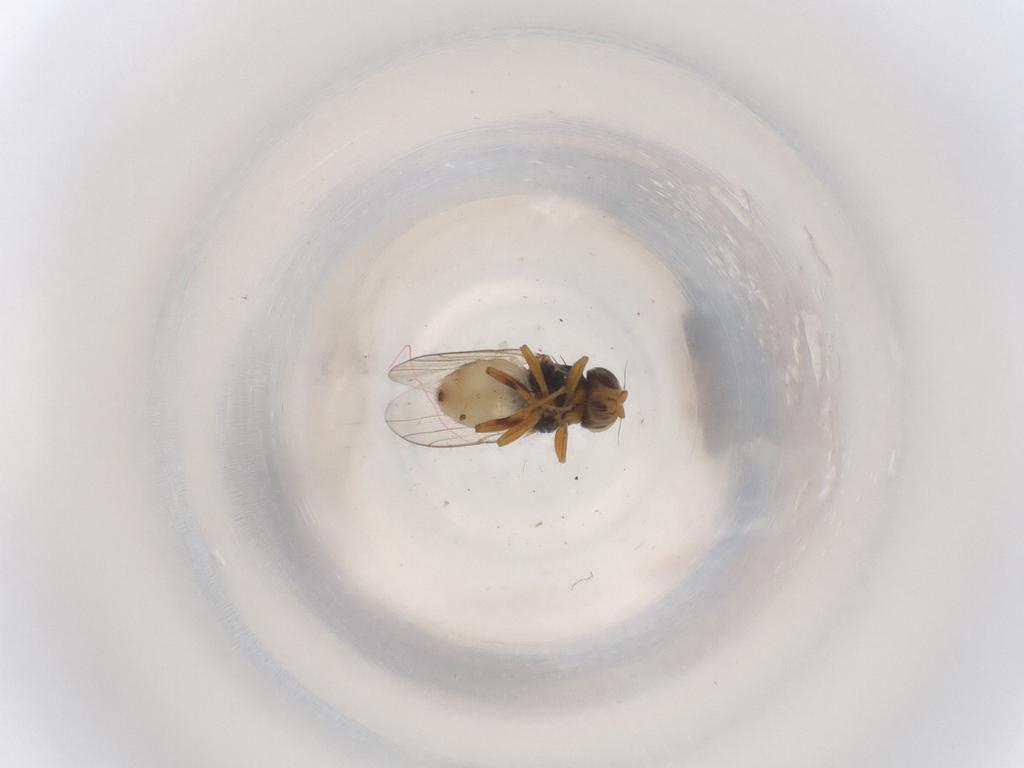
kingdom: Animalia
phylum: Arthropoda
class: Insecta
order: Diptera
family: Chloropidae
